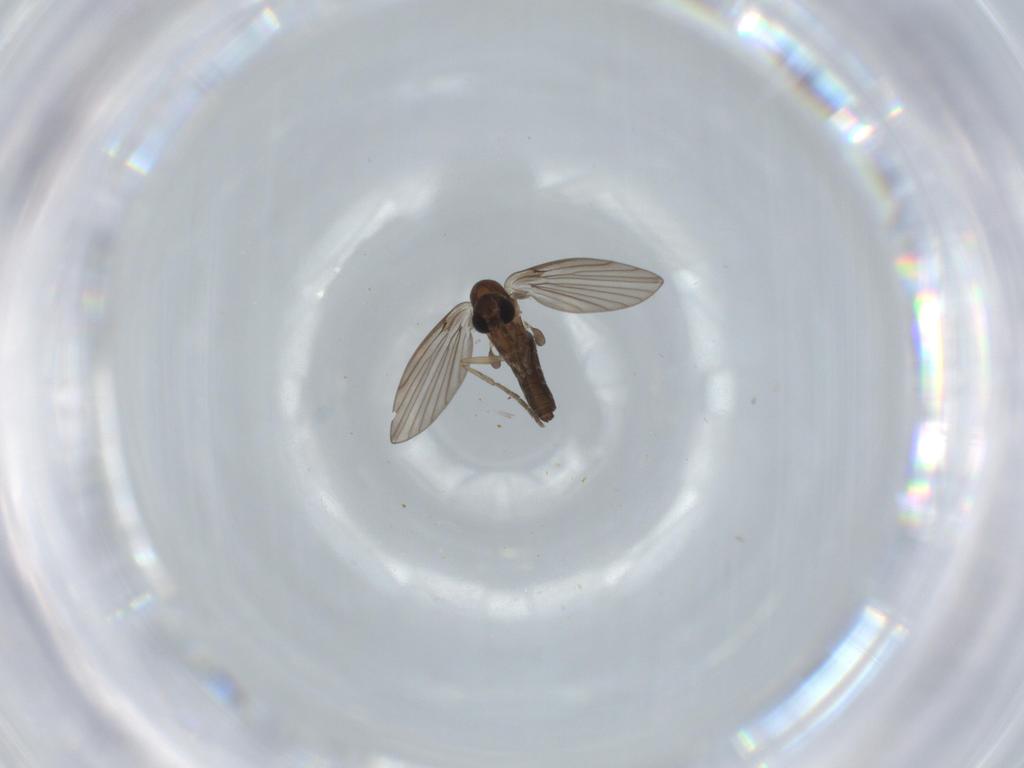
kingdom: Animalia
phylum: Arthropoda
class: Insecta
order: Diptera
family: Psychodidae
